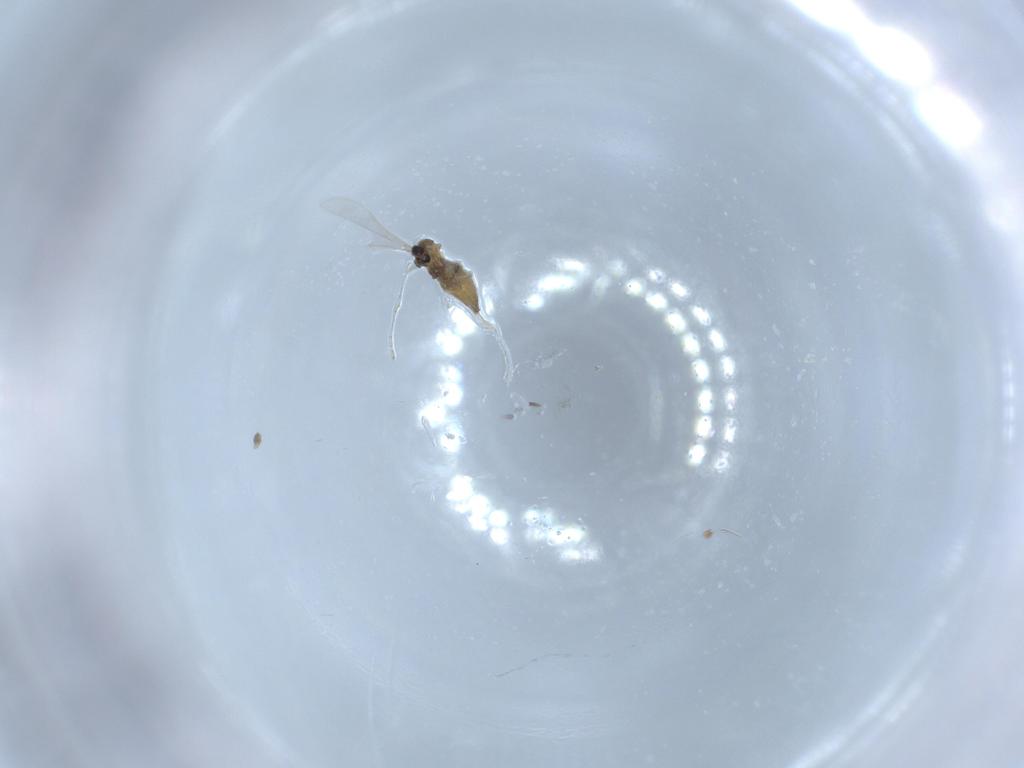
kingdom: Animalia
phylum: Arthropoda
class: Insecta
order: Diptera
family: Cecidomyiidae
